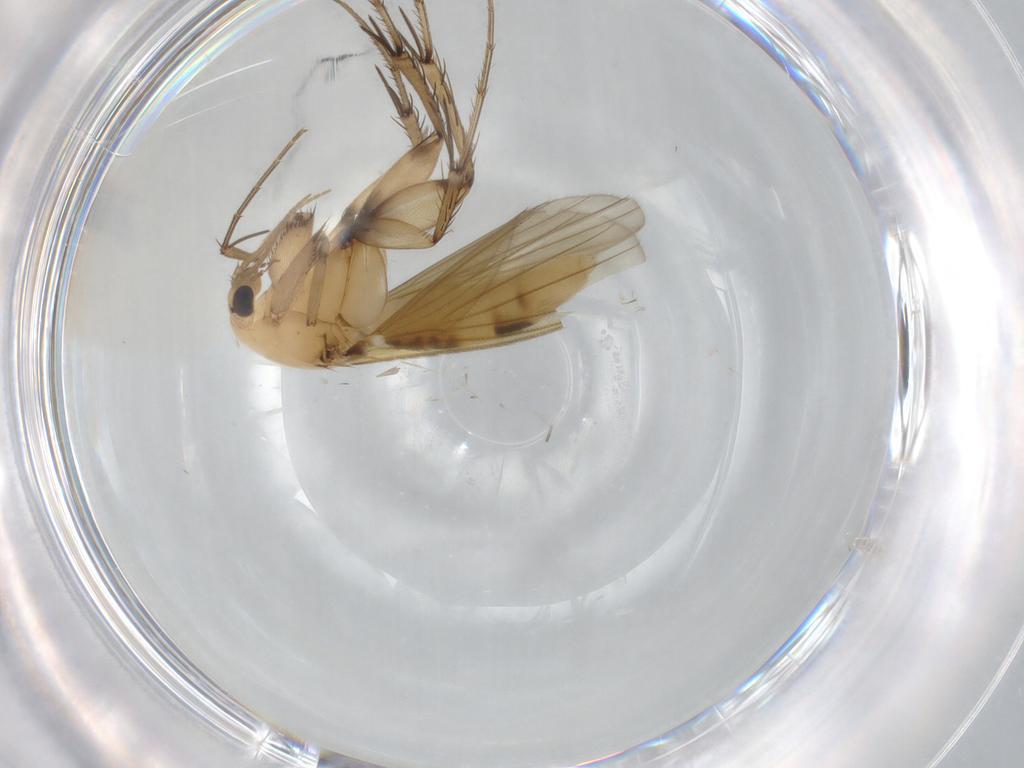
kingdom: Animalia
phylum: Arthropoda
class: Insecta
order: Diptera
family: Mycetophilidae
